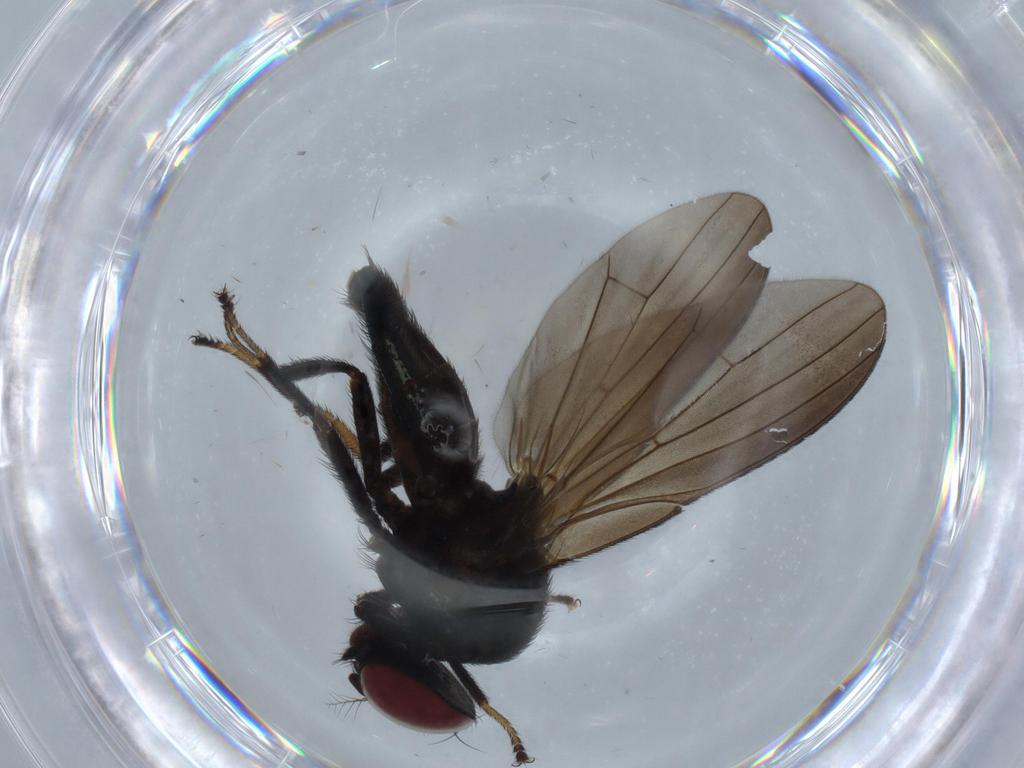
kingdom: Animalia
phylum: Arthropoda
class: Insecta
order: Diptera
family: Lonchaeidae
